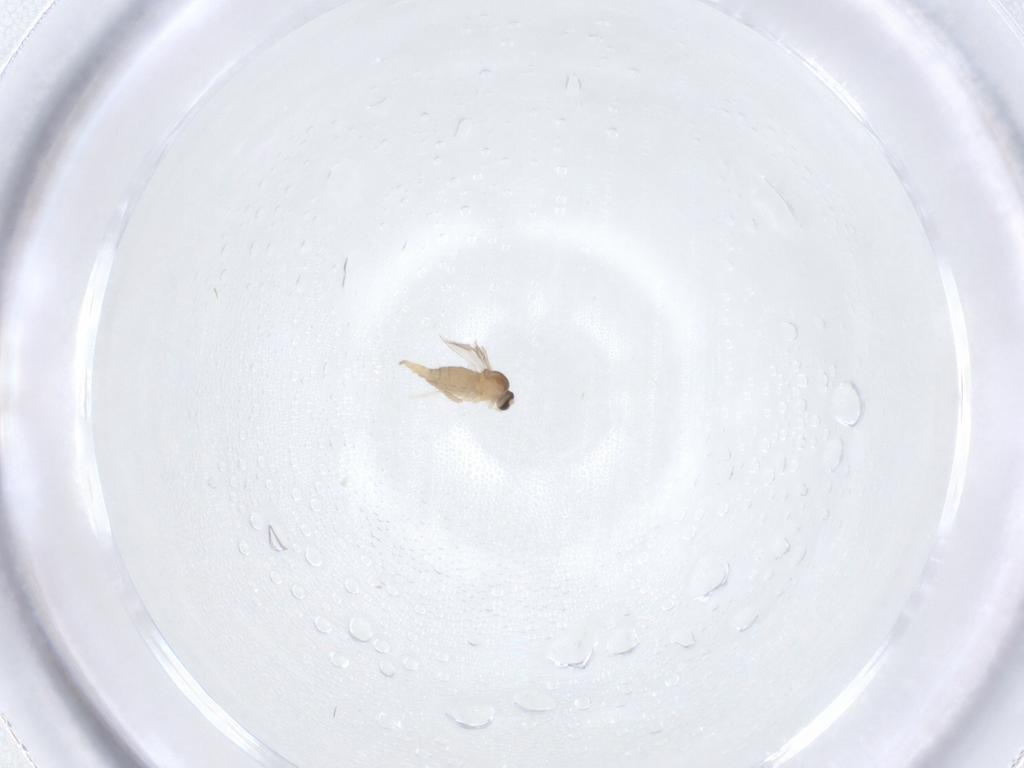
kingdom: Animalia
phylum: Arthropoda
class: Insecta
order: Diptera
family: Cecidomyiidae
